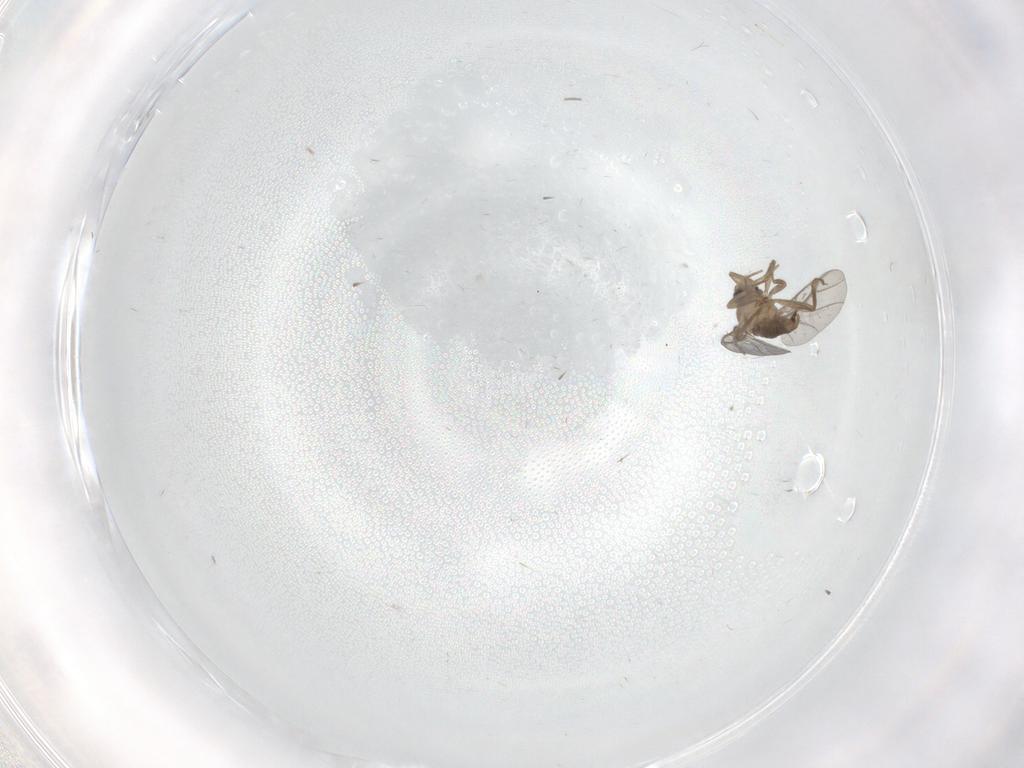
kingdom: Animalia
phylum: Arthropoda
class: Insecta
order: Diptera
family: Cecidomyiidae
